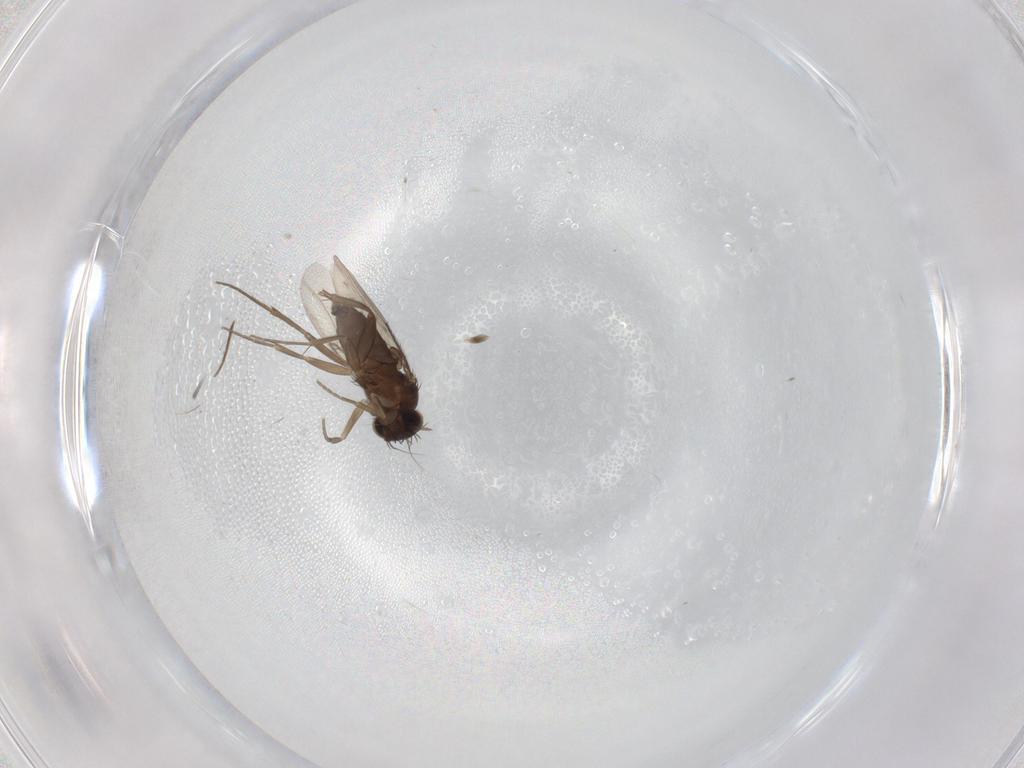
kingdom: Animalia
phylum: Arthropoda
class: Insecta
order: Diptera
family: Phoridae
